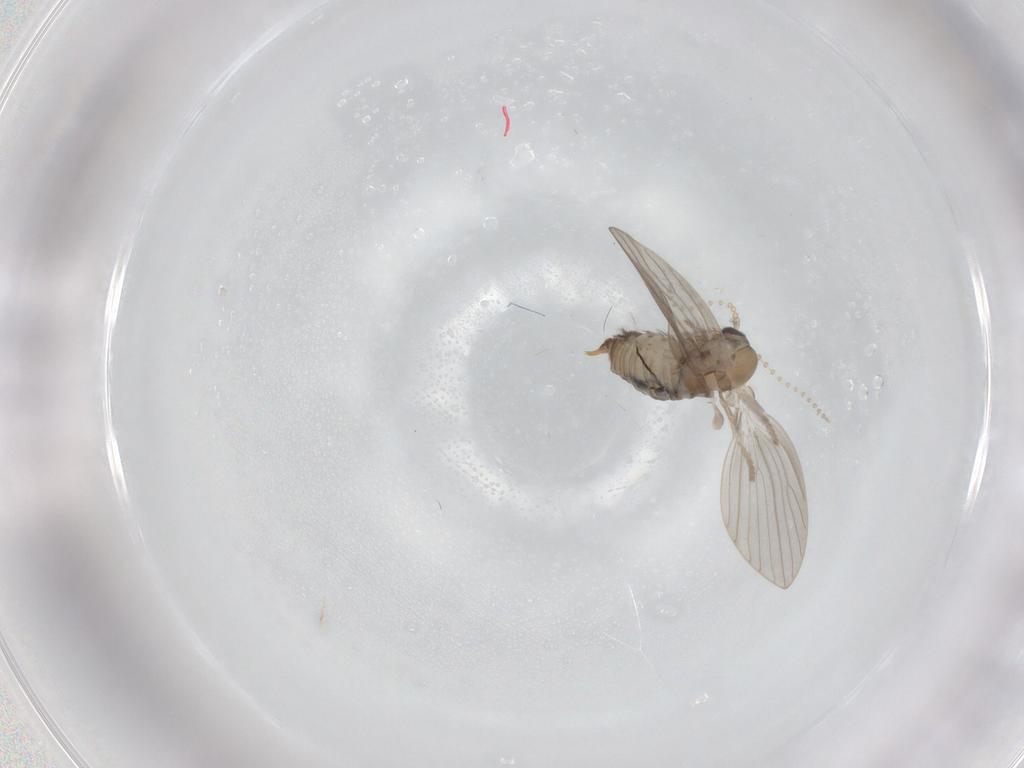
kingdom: Animalia
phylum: Arthropoda
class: Insecta
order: Diptera
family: Psychodidae
